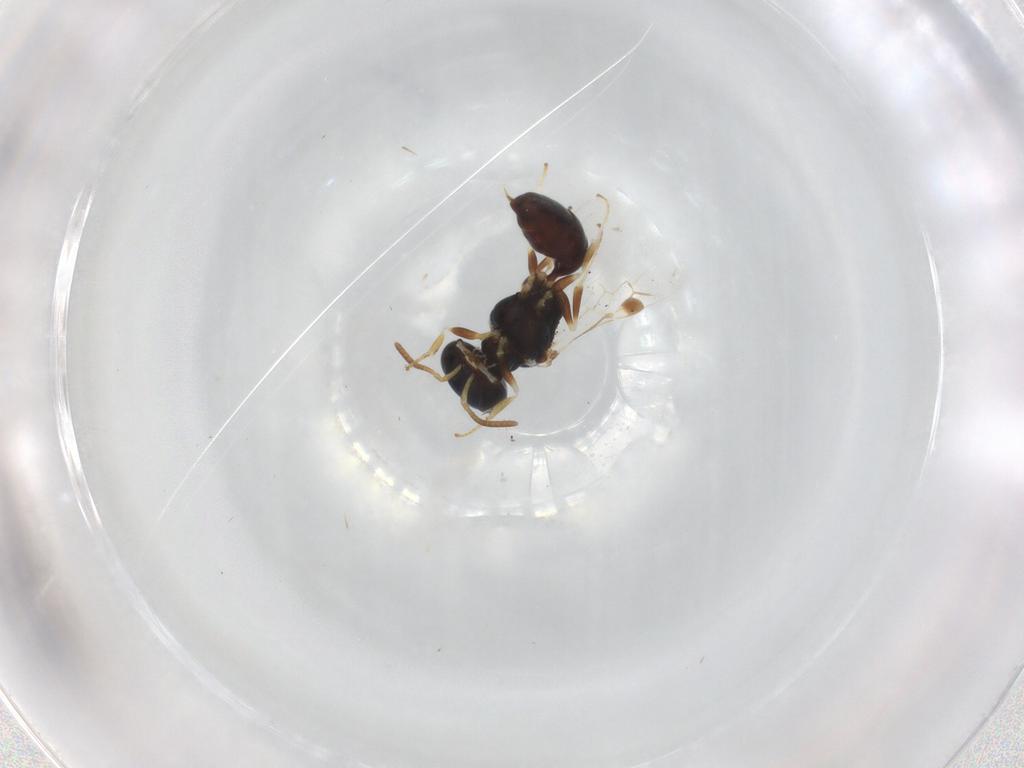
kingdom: Animalia
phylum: Arthropoda
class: Insecta
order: Hymenoptera
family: Pemphredonidae
